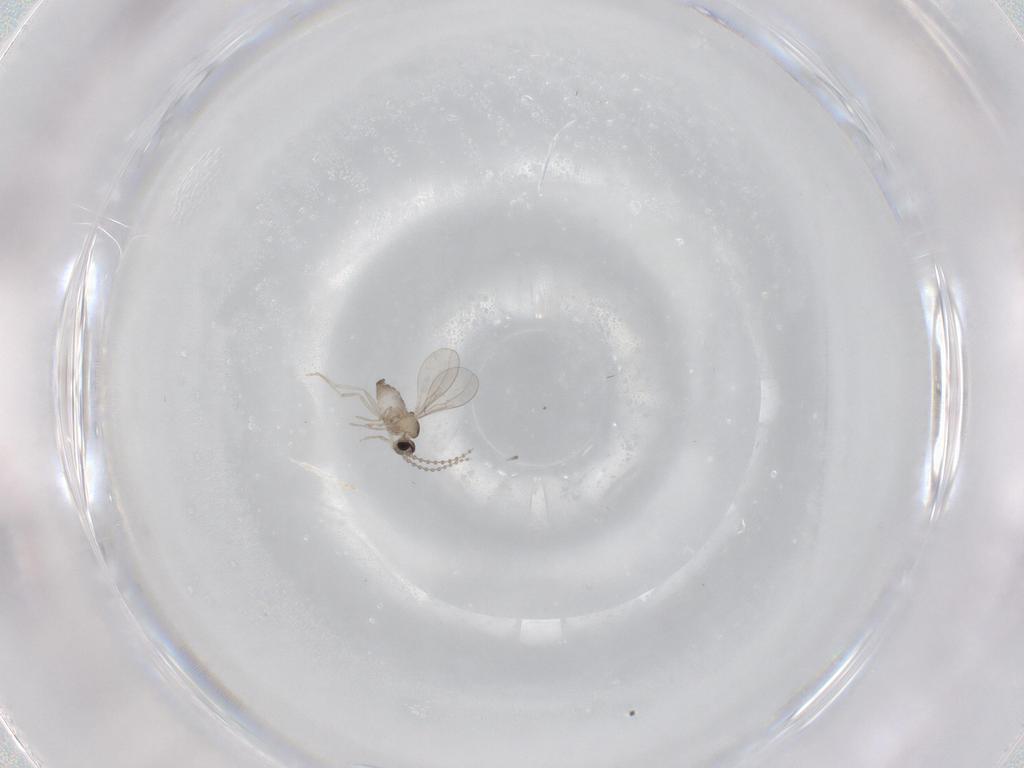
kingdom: Animalia
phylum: Arthropoda
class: Insecta
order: Diptera
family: Cecidomyiidae
